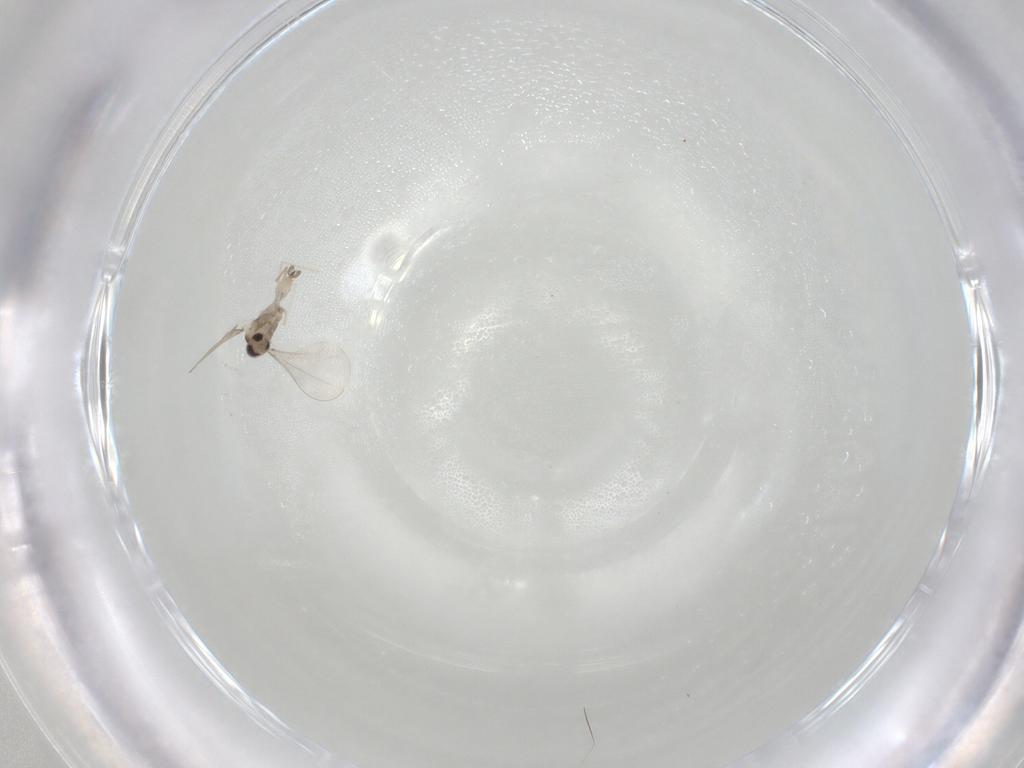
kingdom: Animalia
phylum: Arthropoda
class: Insecta
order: Diptera
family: Cecidomyiidae
